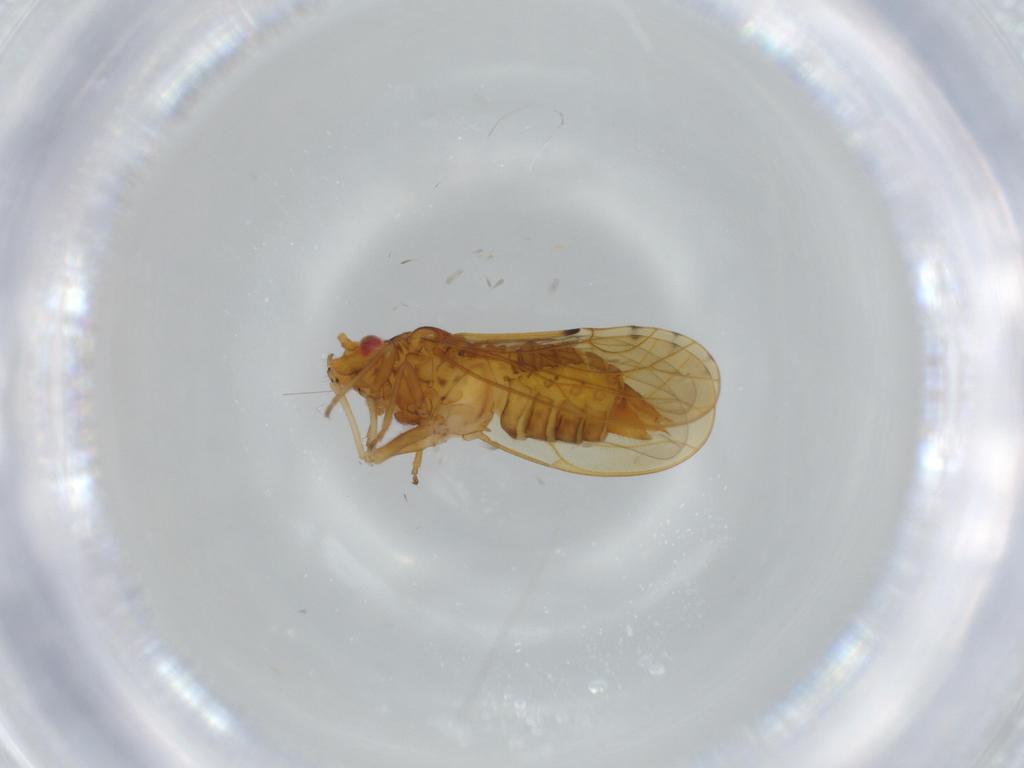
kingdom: Animalia
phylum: Arthropoda
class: Insecta
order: Hemiptera
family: Psylloidea_incertae_sedis
